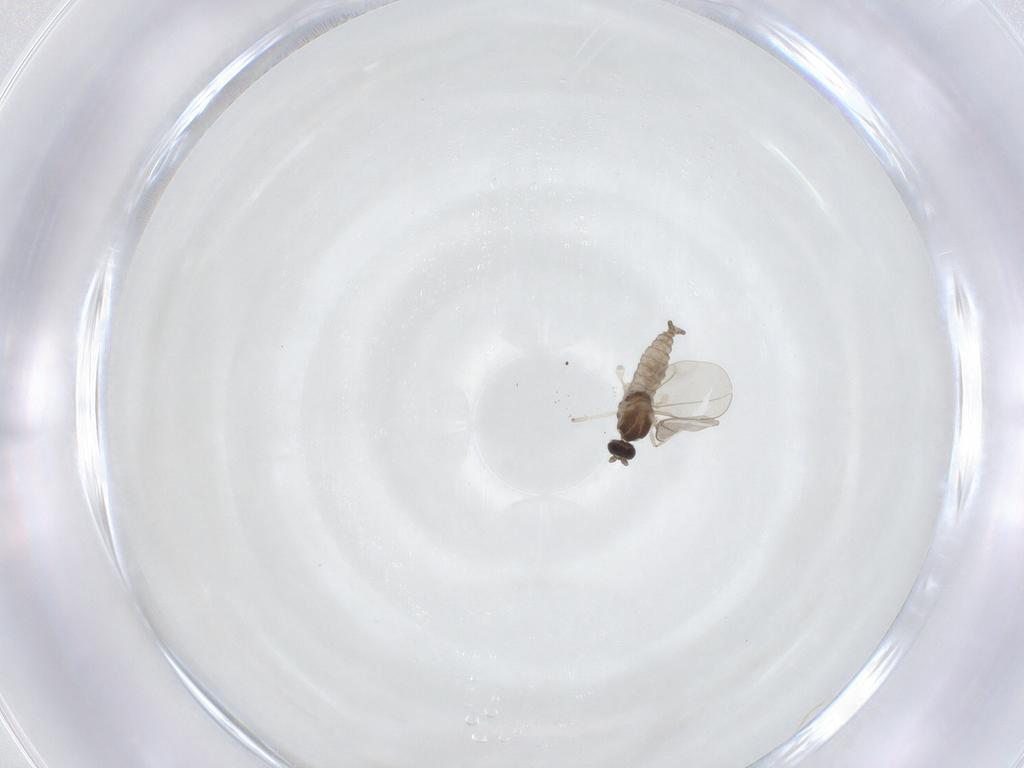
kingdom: Animalia
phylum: Arthropoda
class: Insecta
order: Diptera
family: Cecidomyiidae
